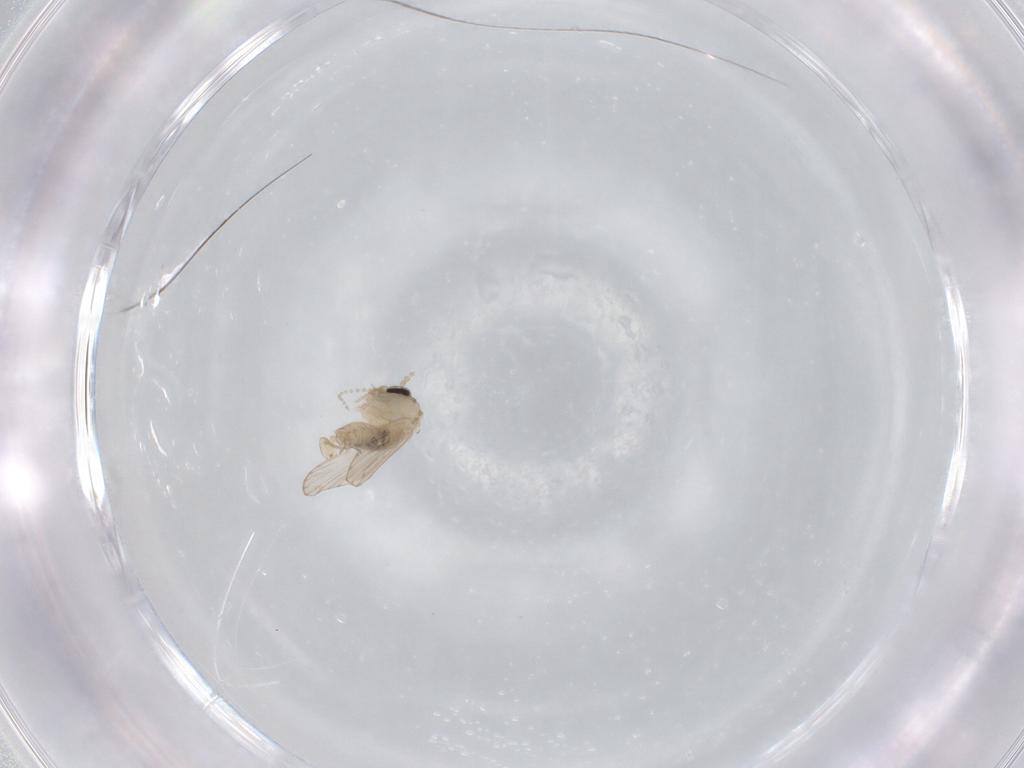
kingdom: Animalia
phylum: Arthropoda
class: Insecta
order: Diptera
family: Psychodidae
